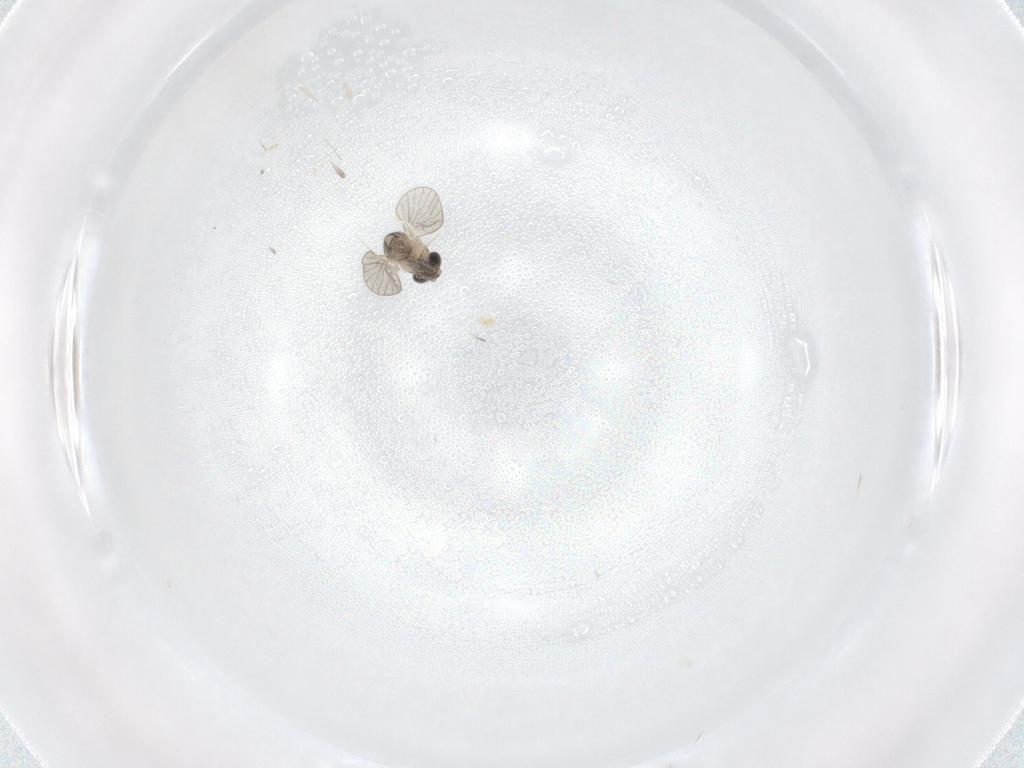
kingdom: Animalia
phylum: Arthropoda
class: Insecta
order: Diptera
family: Psychodidae
